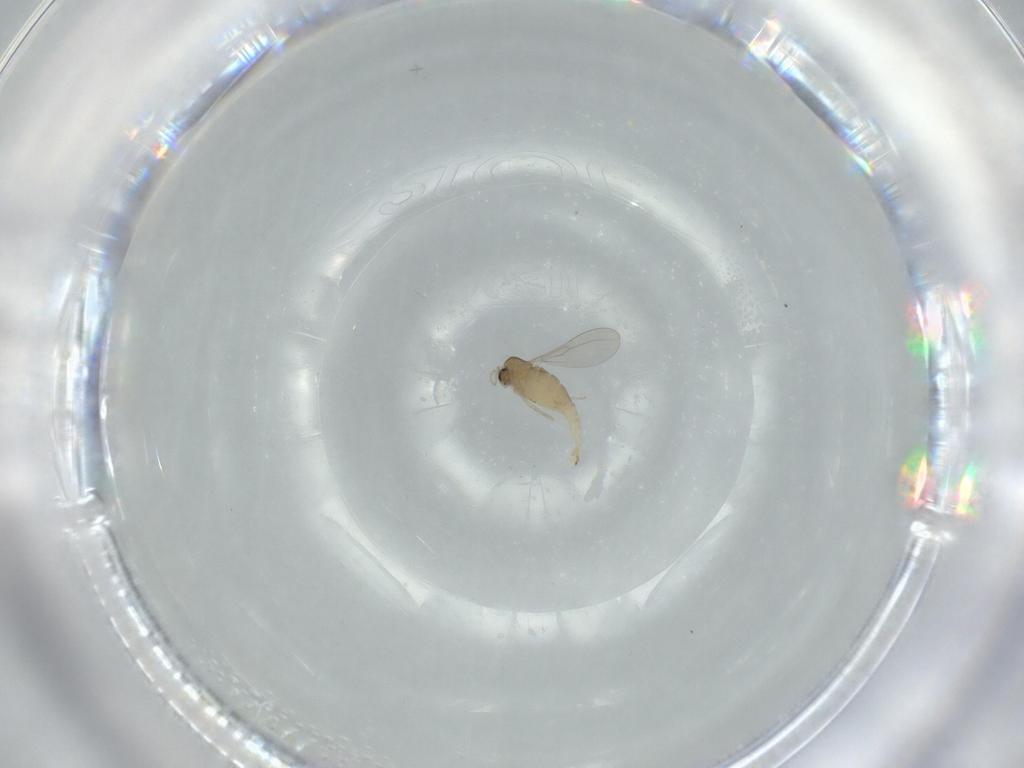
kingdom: Animalia
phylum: Arthropoda
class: Insecta
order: Diptera
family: Cecidomyiidae
